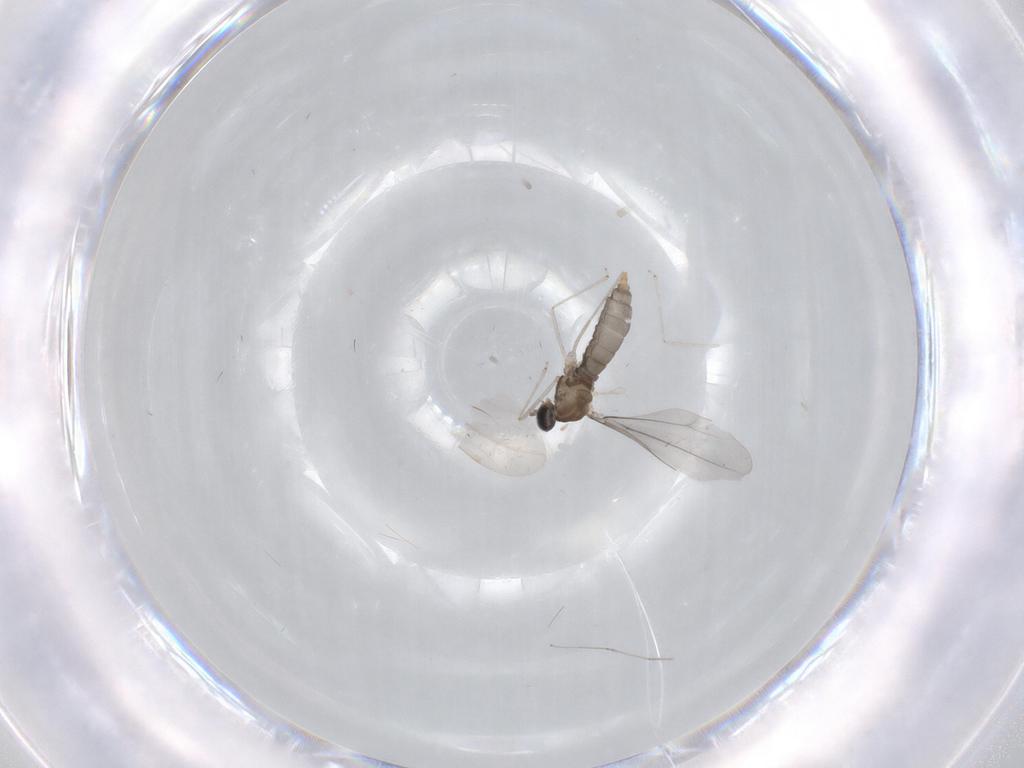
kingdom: Animalia
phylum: Arthropoda
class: Insecta
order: Diptera
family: Cecidomyiidae
